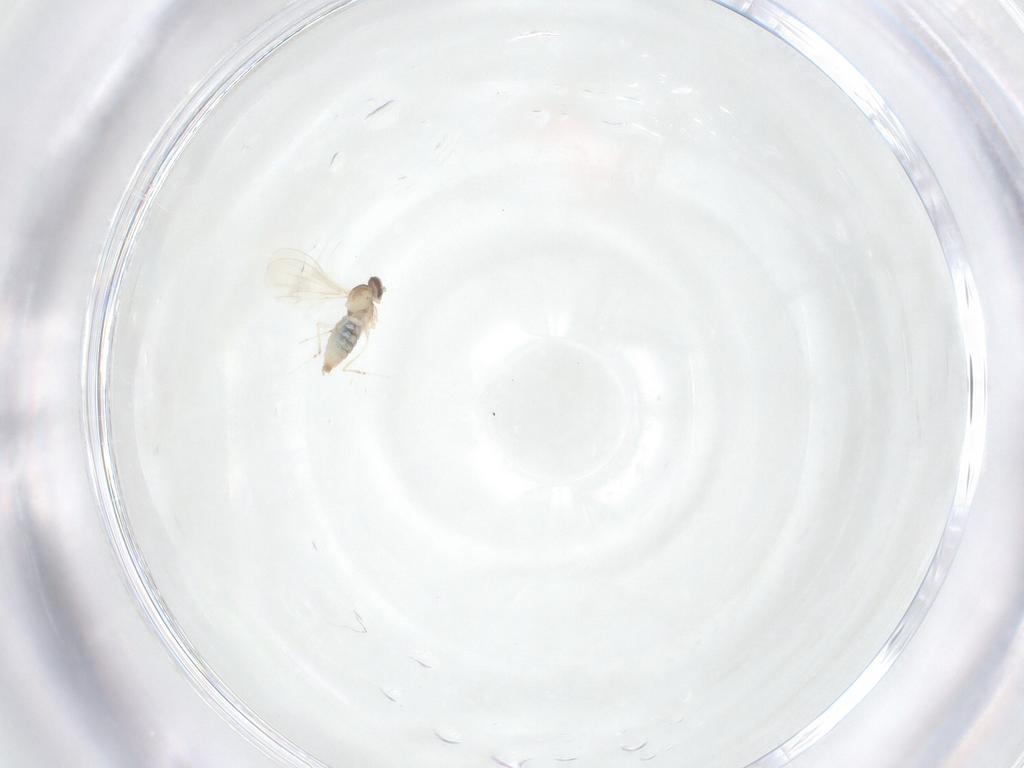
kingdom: Animalia
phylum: Arthropoda
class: Insecta
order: Diptera
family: Cecidomyiidae
